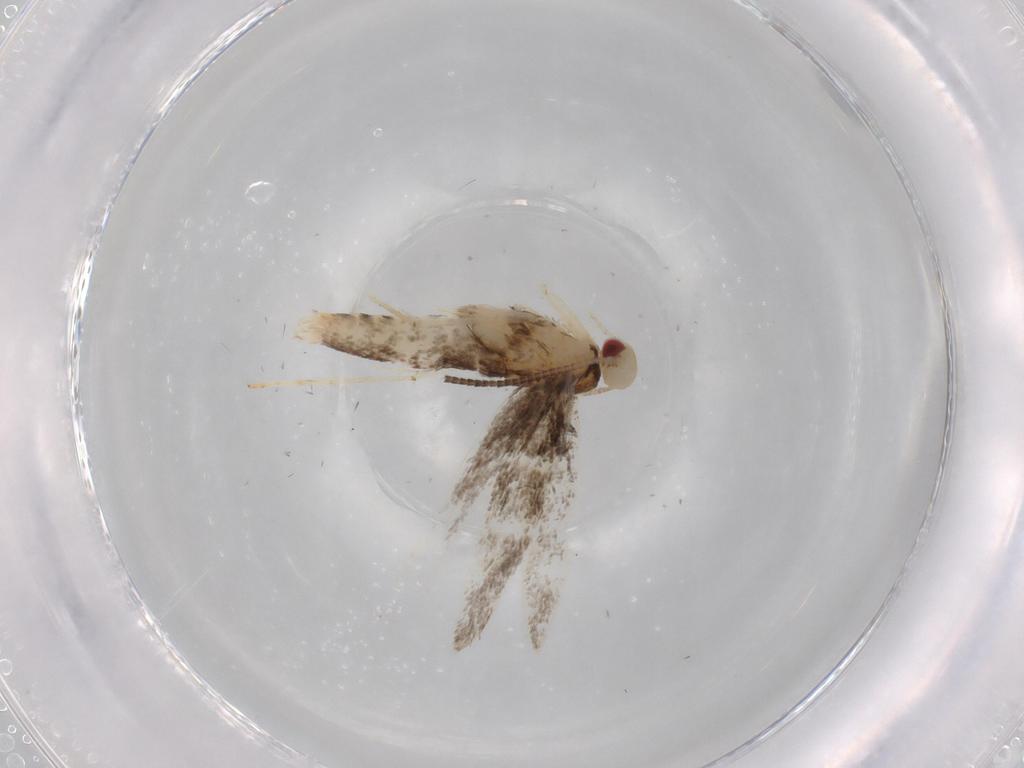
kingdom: Animalia
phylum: Arthropoda
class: Insecta
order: Lepidoptera
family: Gracillariidae
